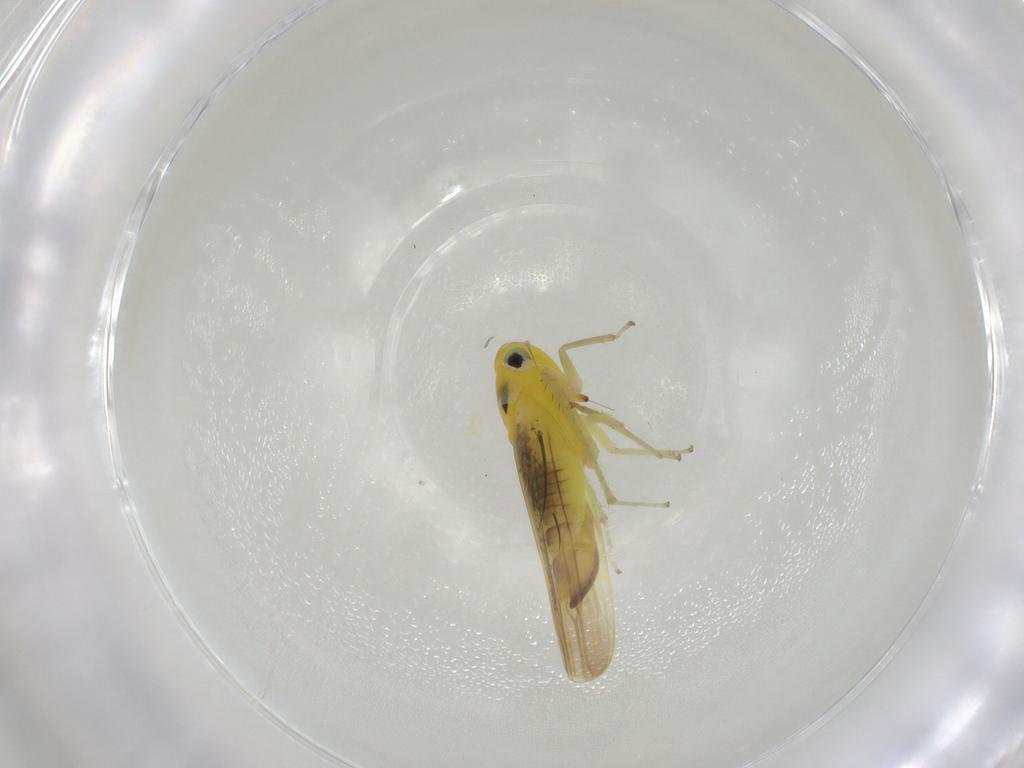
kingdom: Animalia
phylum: Arthropoda
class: Insecta
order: Hemiptera
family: Cicadellidae
